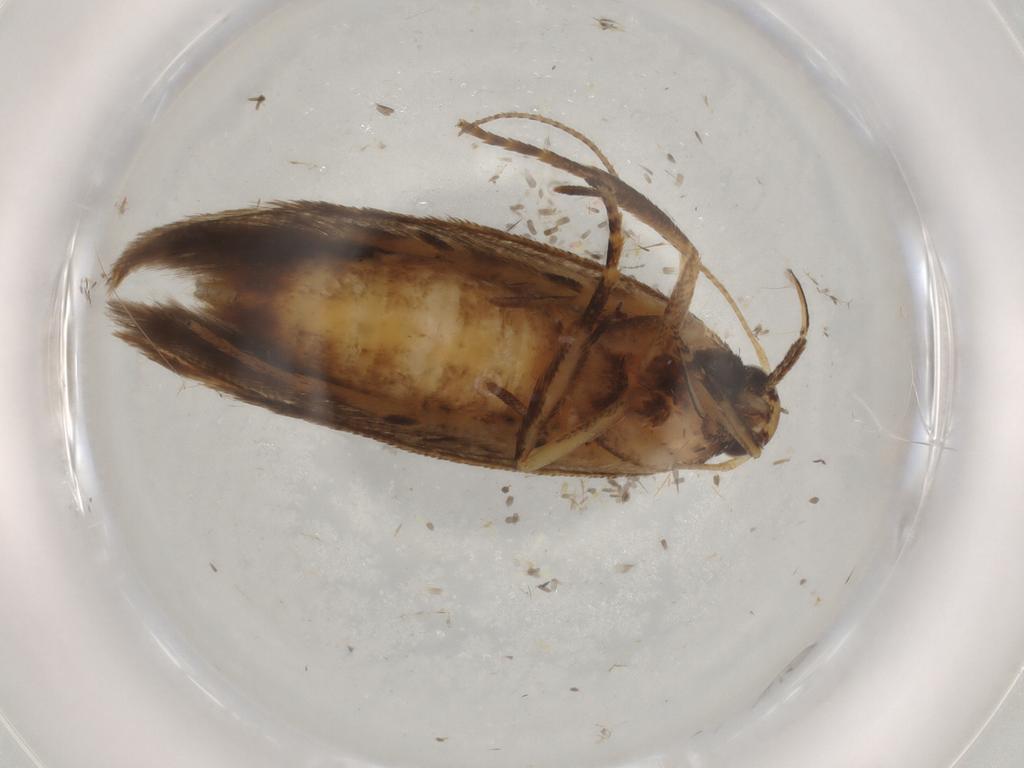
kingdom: Animalia
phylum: Arthropoda
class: Insecta
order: Lepidoptera
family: Gelechiidae
